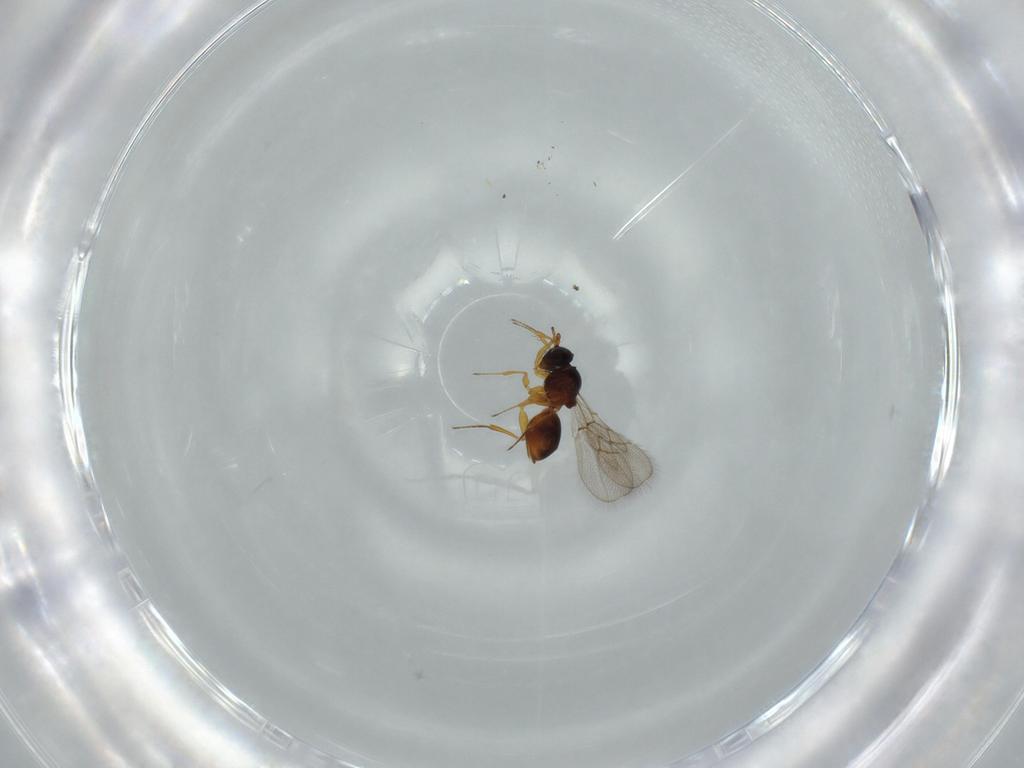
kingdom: Animalia
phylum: Arthropoda
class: Insecta
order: Hymenoptera
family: Figitidae
